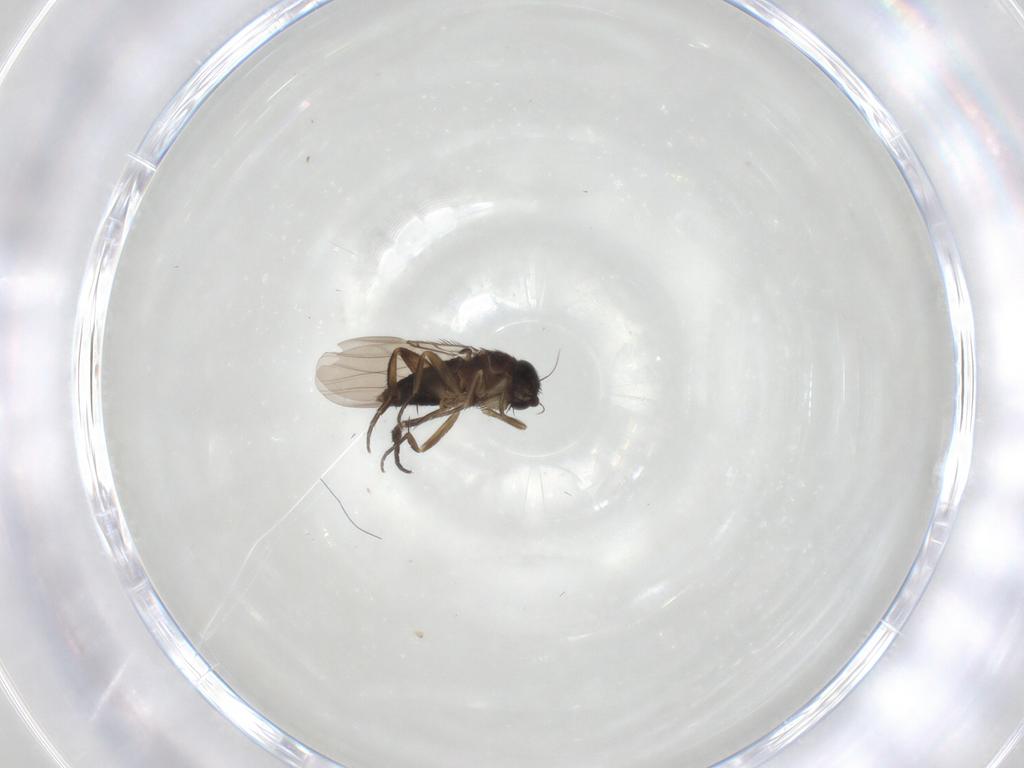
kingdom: Animalia
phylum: Arthropoda
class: Insecta
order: Diptera
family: Phoridae
